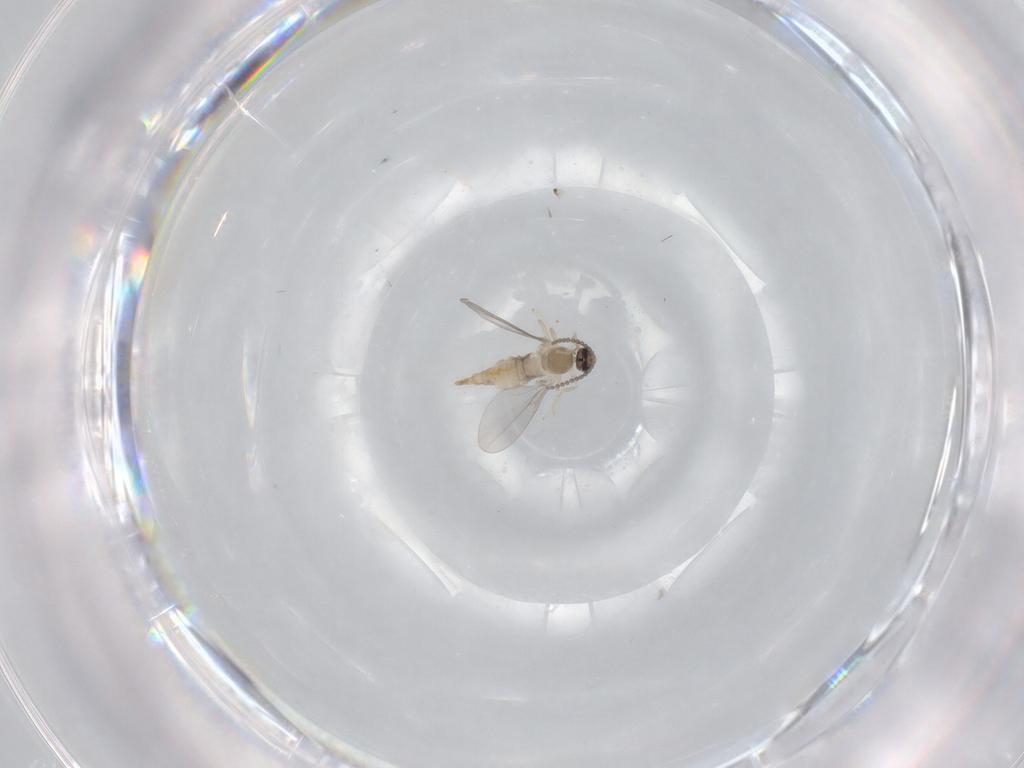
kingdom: Animalia
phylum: Arthropoda
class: Insecta
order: Diptera
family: Cecidomyiidae
